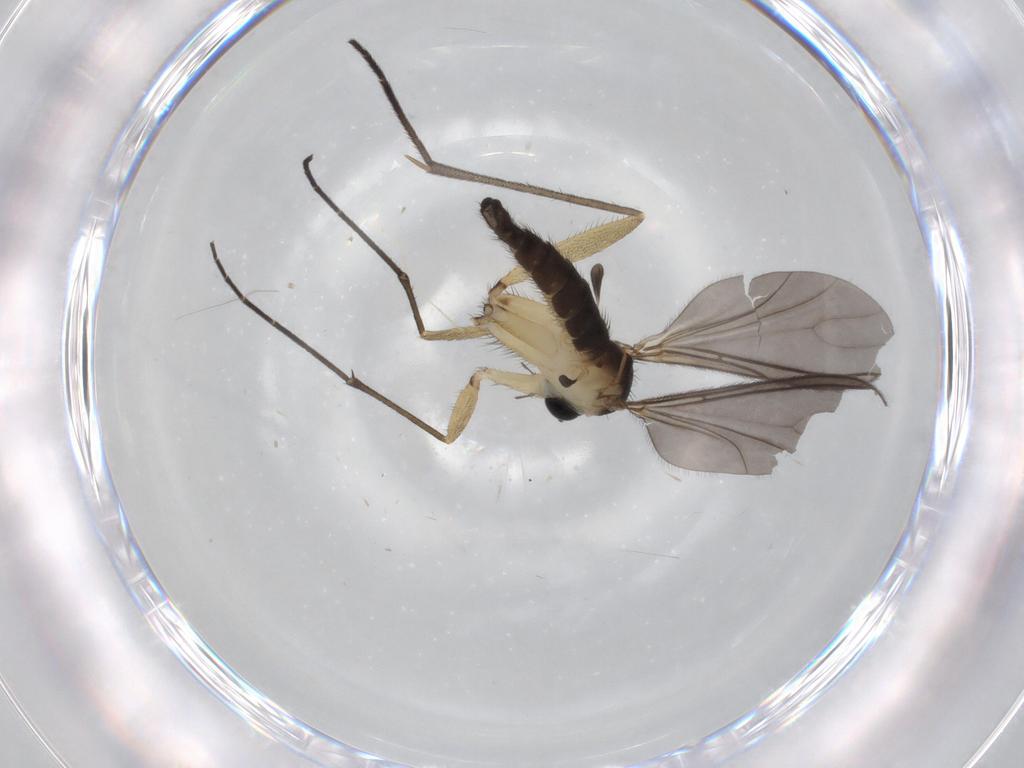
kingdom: Animalia
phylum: Arthropoda
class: Insecta
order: Diptera
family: Sciaridae
